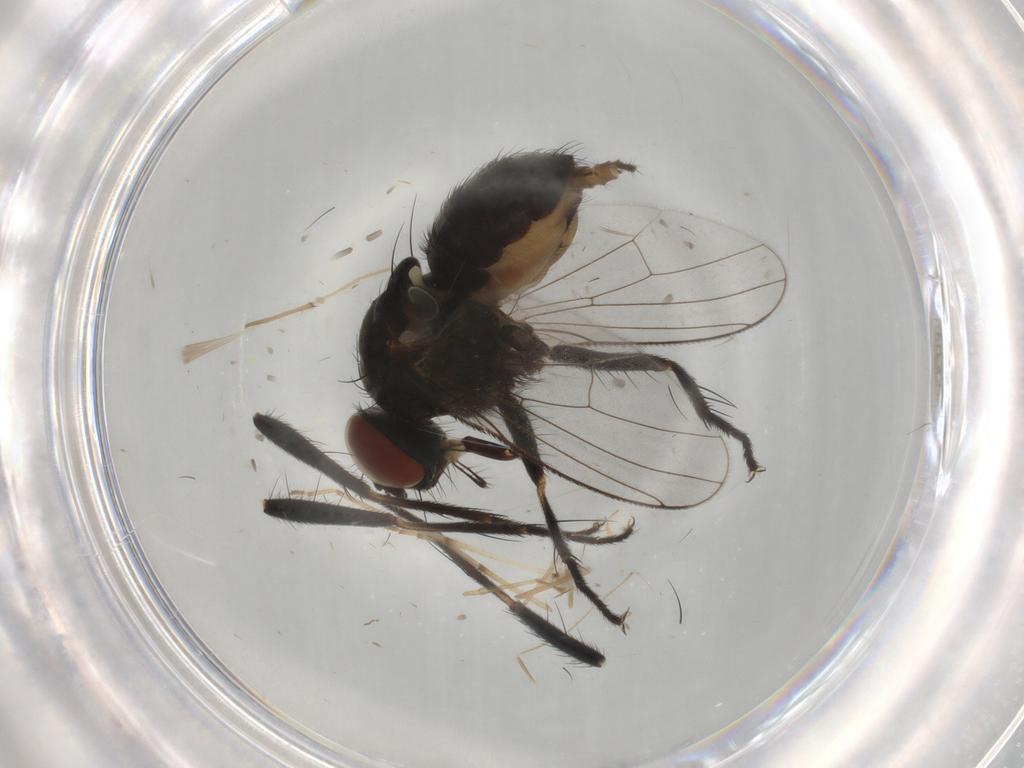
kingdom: Animalia
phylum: Arthropoda
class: Insecta
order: Diptera
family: Muscidae
